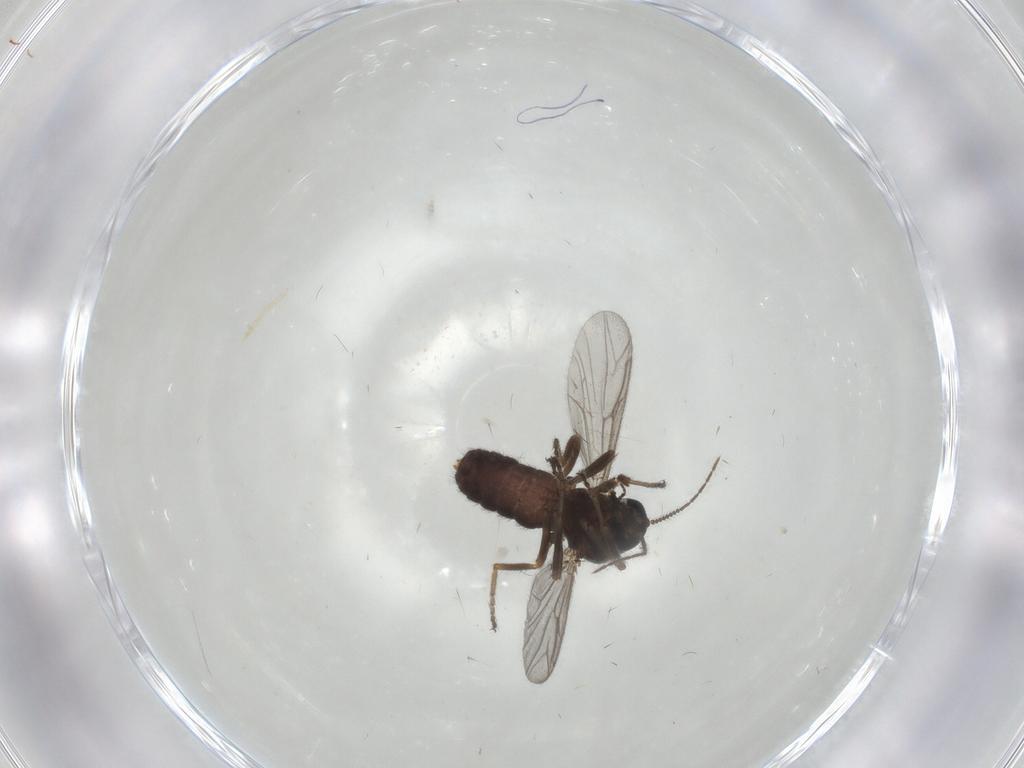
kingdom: Animalia
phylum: Arthropoda
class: Insecta
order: Diptera
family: Ceratopogonidae
